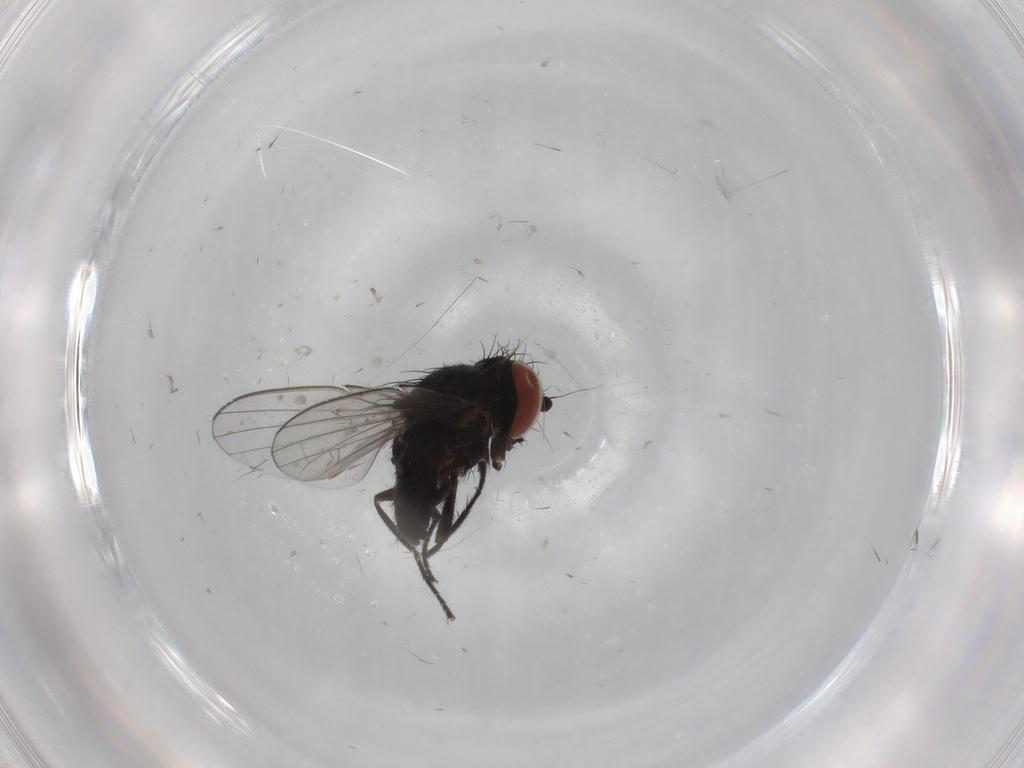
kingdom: Animalia
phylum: Arthropoda
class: Insecta
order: Diptera
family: Milichiidae
